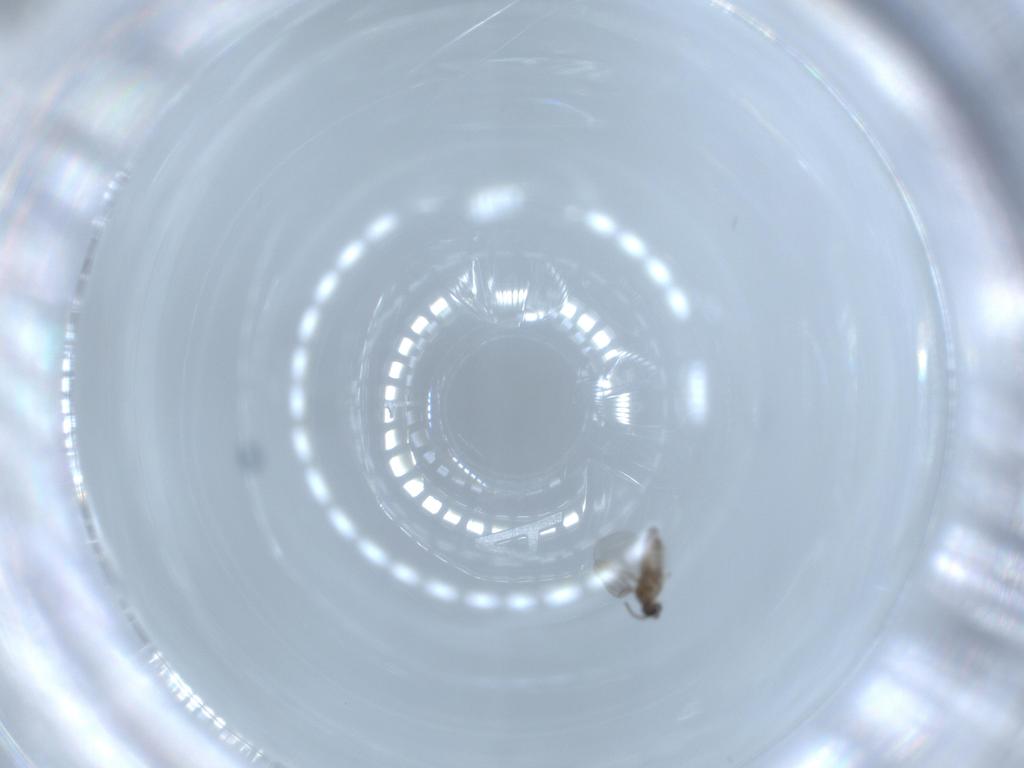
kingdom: Animalia
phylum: Arthropoda
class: Insecta
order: Diptera
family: Cecidomyiidae
